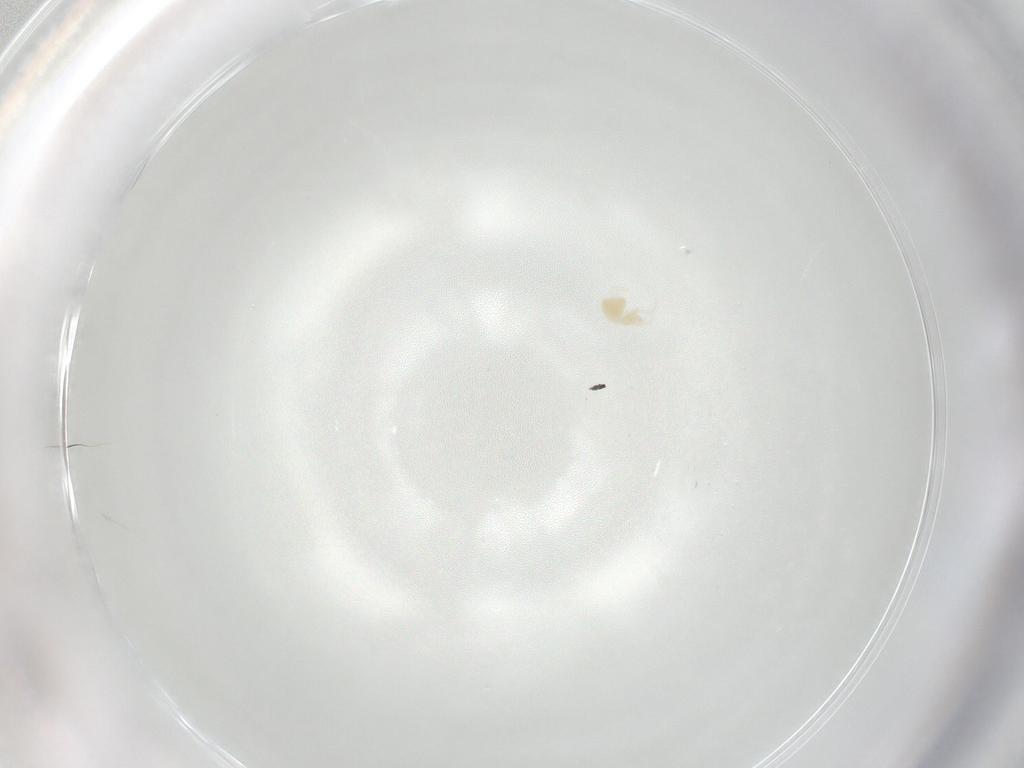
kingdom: Animalia
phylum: Arthropoda
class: Arachnida
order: Trombidiformes
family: Tetranychidae
